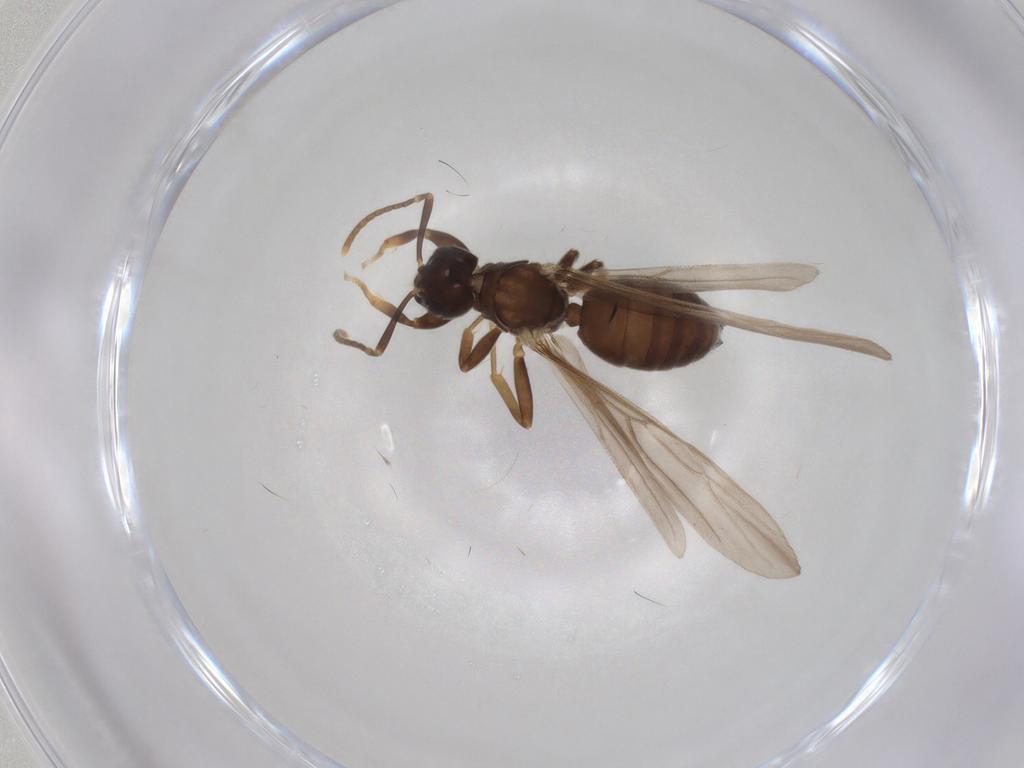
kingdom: Animalia
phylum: Arthropoda
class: Insecta
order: Hymenoptera
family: Formicidae
